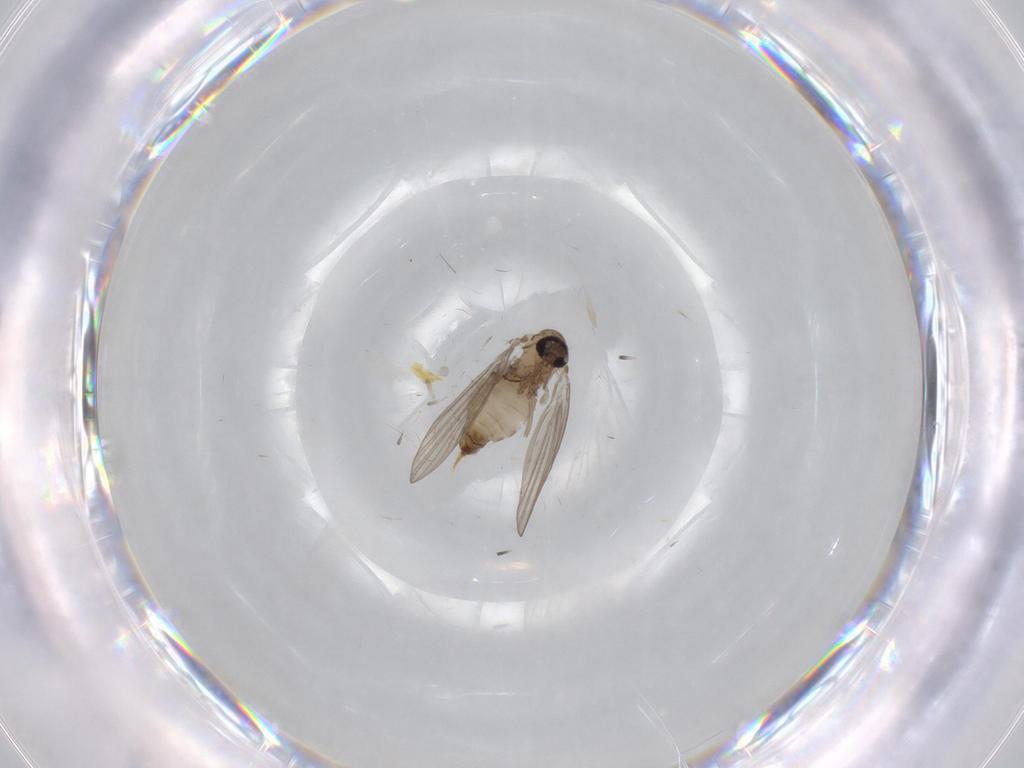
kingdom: Animalia
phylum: Arthropoda
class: Insecta
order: Diptera
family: Psychodidae
